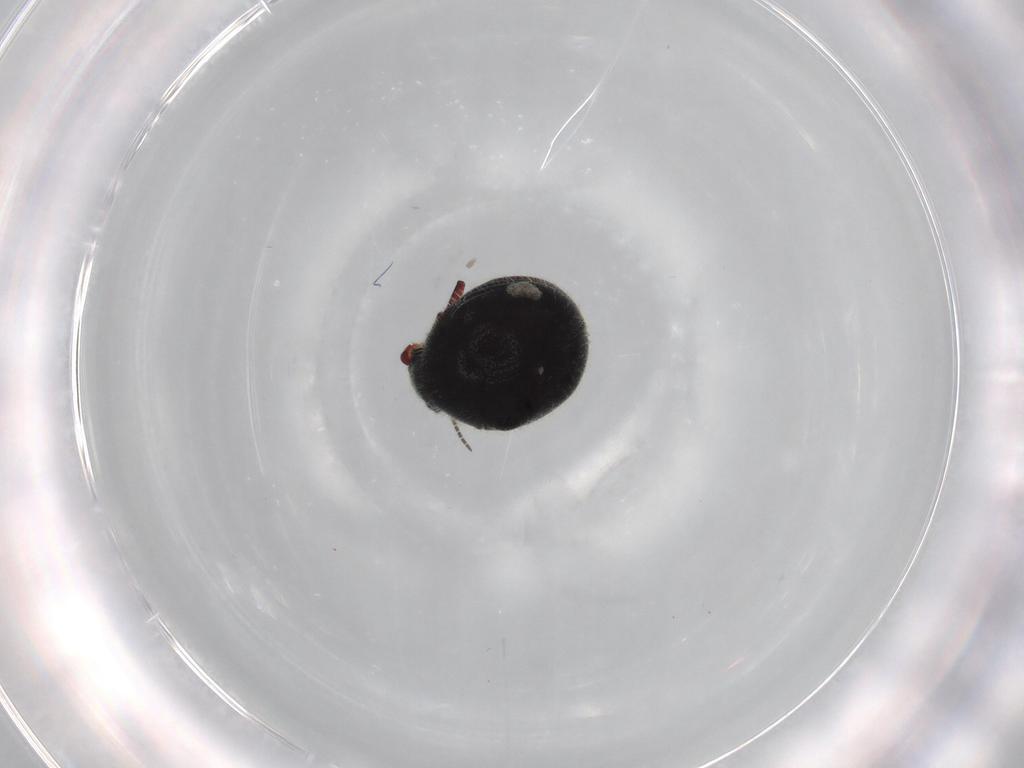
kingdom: Animalia
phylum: Arthropoda
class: Insecta
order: Coleoptera
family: Ptinidae
